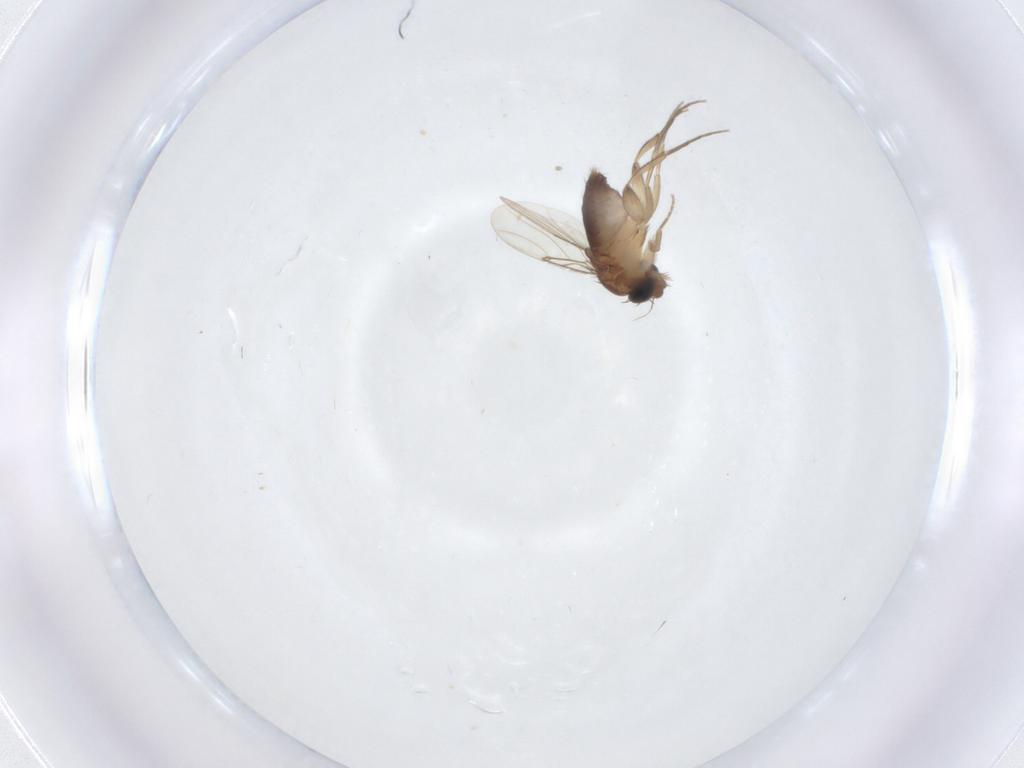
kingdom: Animalia
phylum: Arthropoda
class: Insecta
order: Diptera
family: Phoridae
